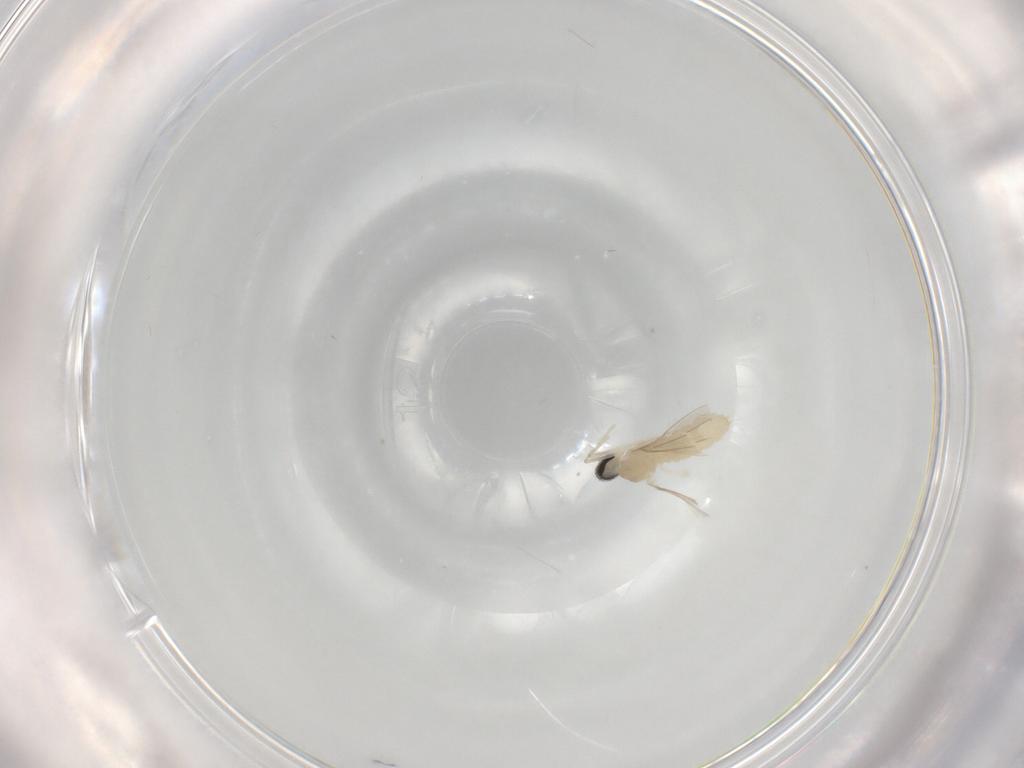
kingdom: Animalia
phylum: Arthropoda
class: Insecta
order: Diptera
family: Cecidomyiidae
